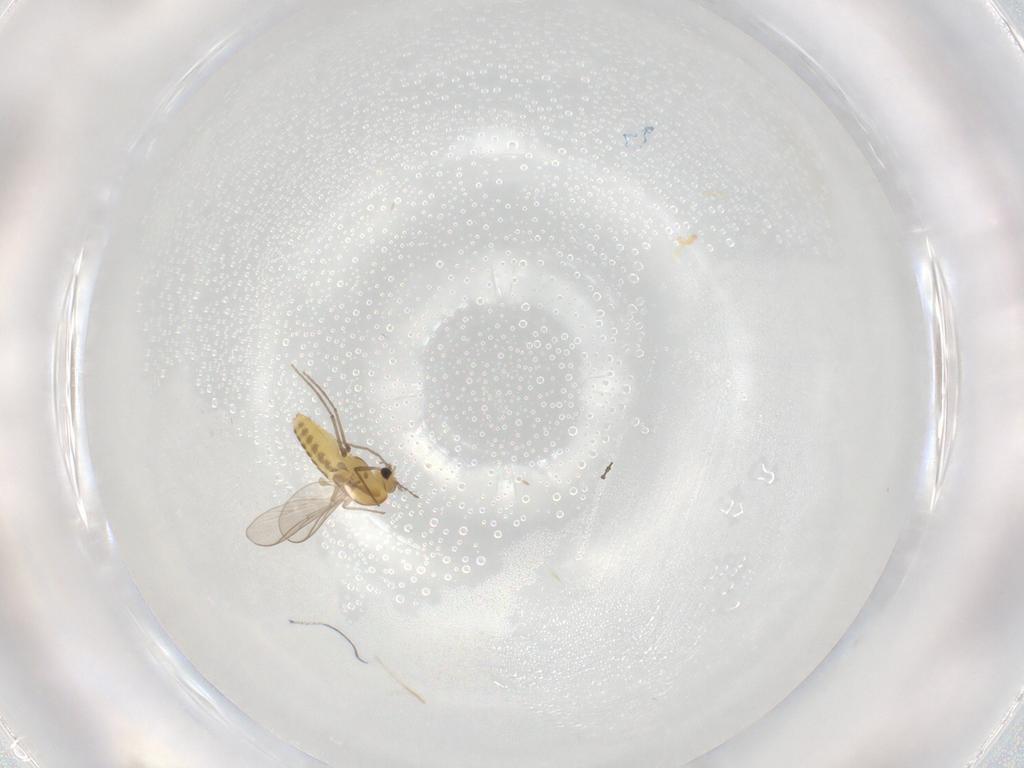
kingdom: Animalia
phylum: Arthropoda
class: Insecta
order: Diptera
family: Chironomidae
